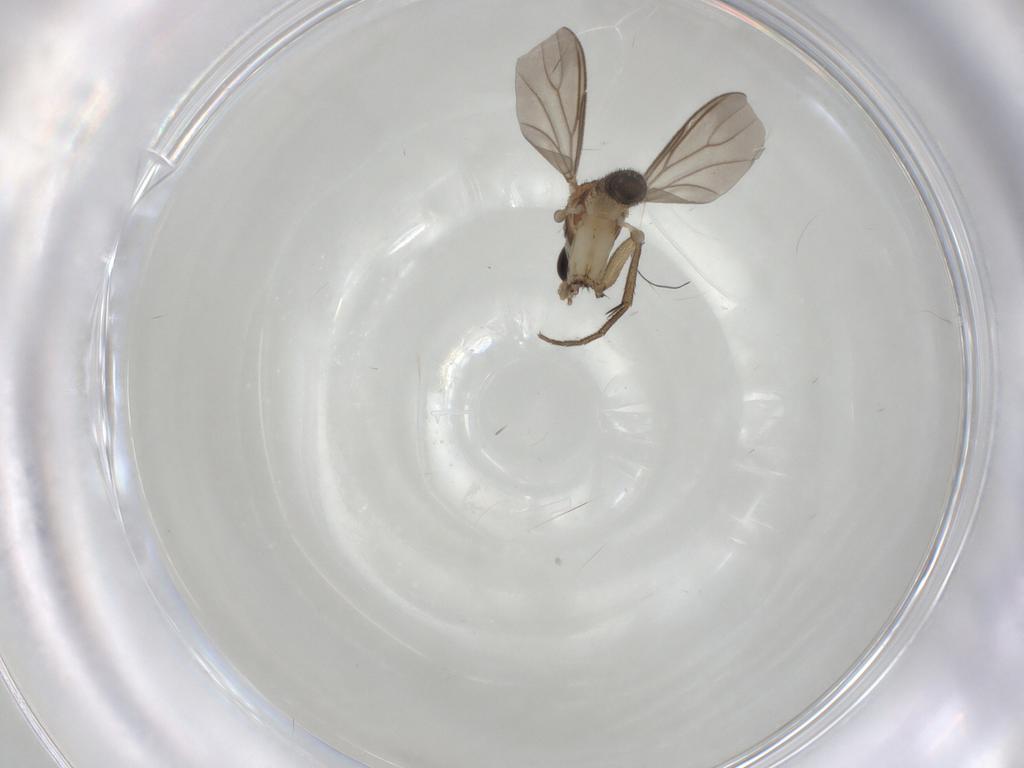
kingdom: Animalia
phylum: Arthropoda
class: Insecta
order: Diptera
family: Mycetophilidae
